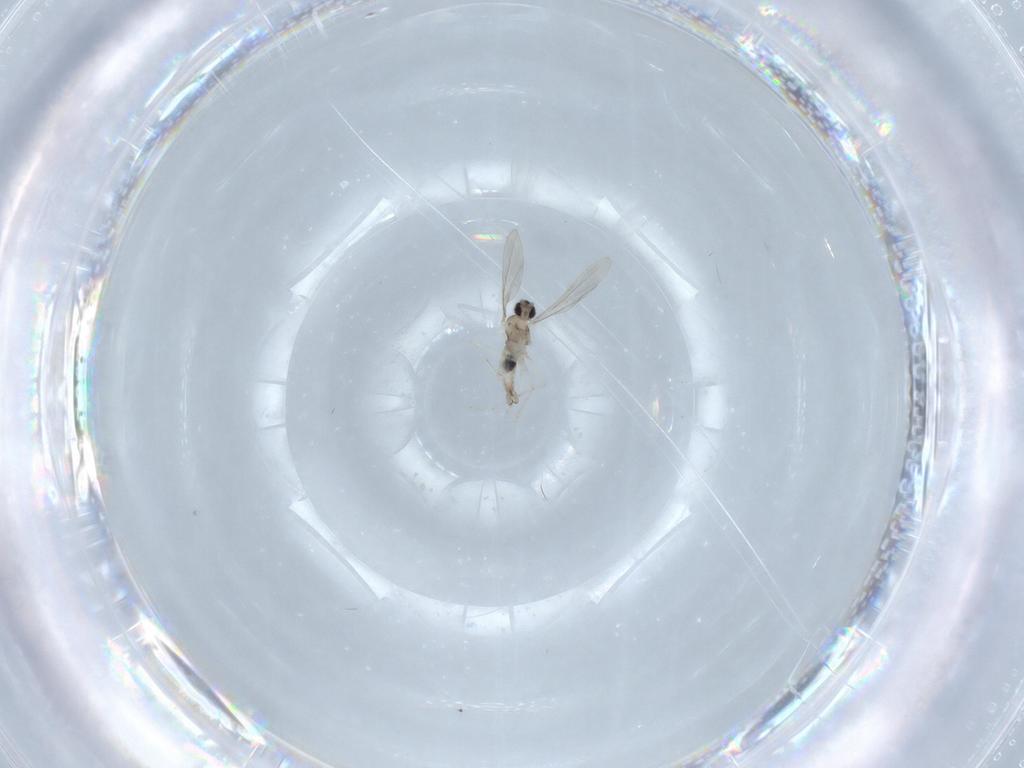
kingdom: Animalia
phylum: Arthropoda
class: Insecta
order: Diptera
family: Cecidomyiidae
